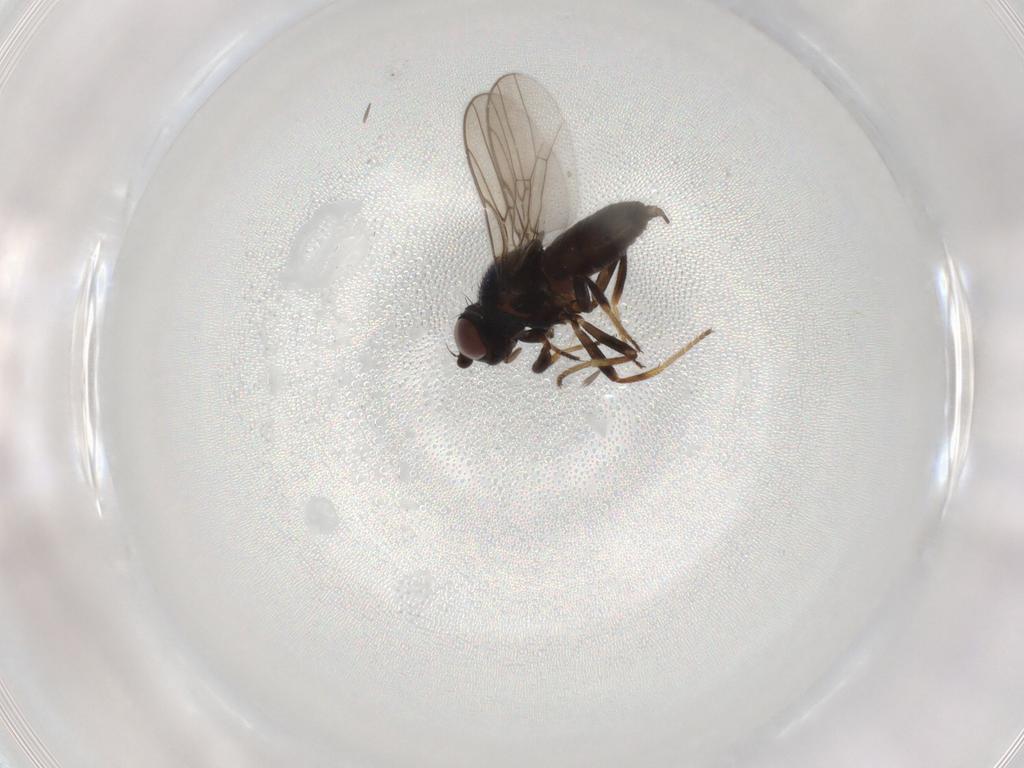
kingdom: Animalia
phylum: Arthropoda
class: Insecta
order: Diptera
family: Chloropidae
